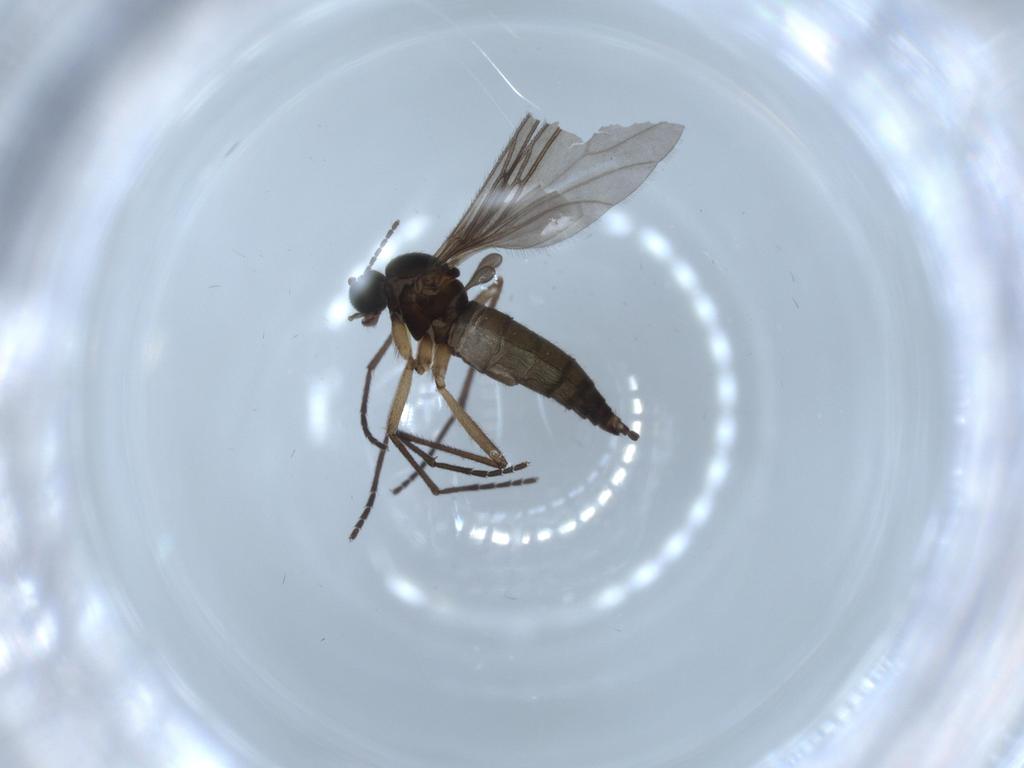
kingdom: Animalia
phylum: Arthropoda
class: Insecta
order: Diptera
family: Sciaridae
